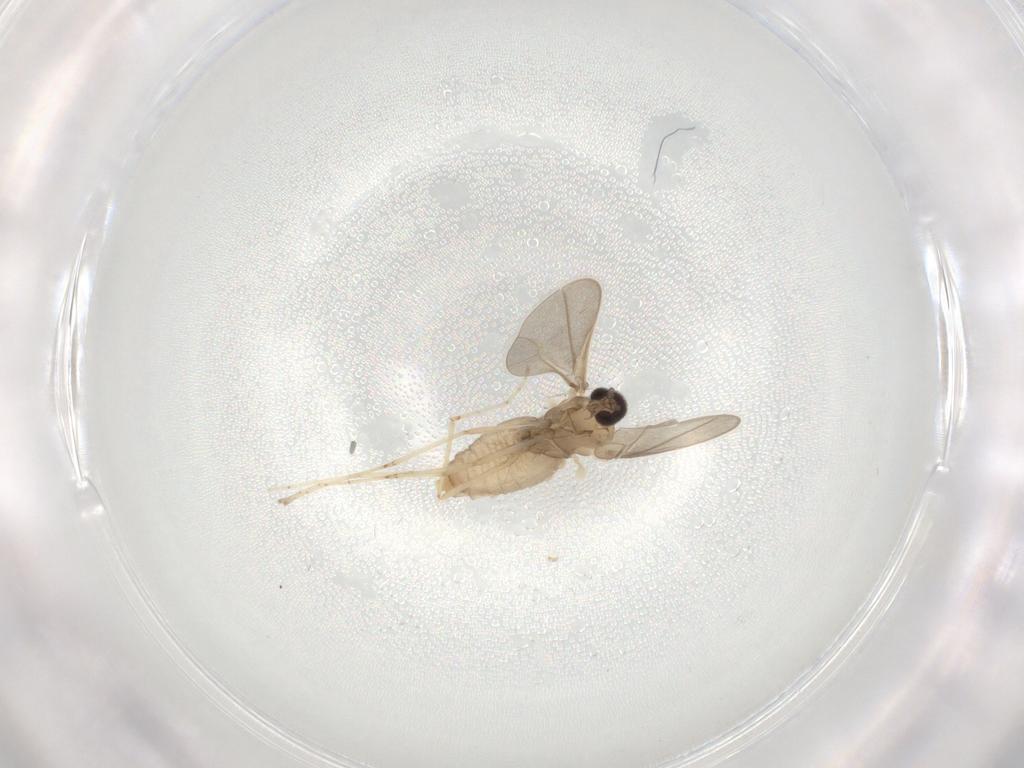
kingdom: Animalia
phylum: Arthropoda
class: Insecta
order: Diptera
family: Cecidomyiidae
